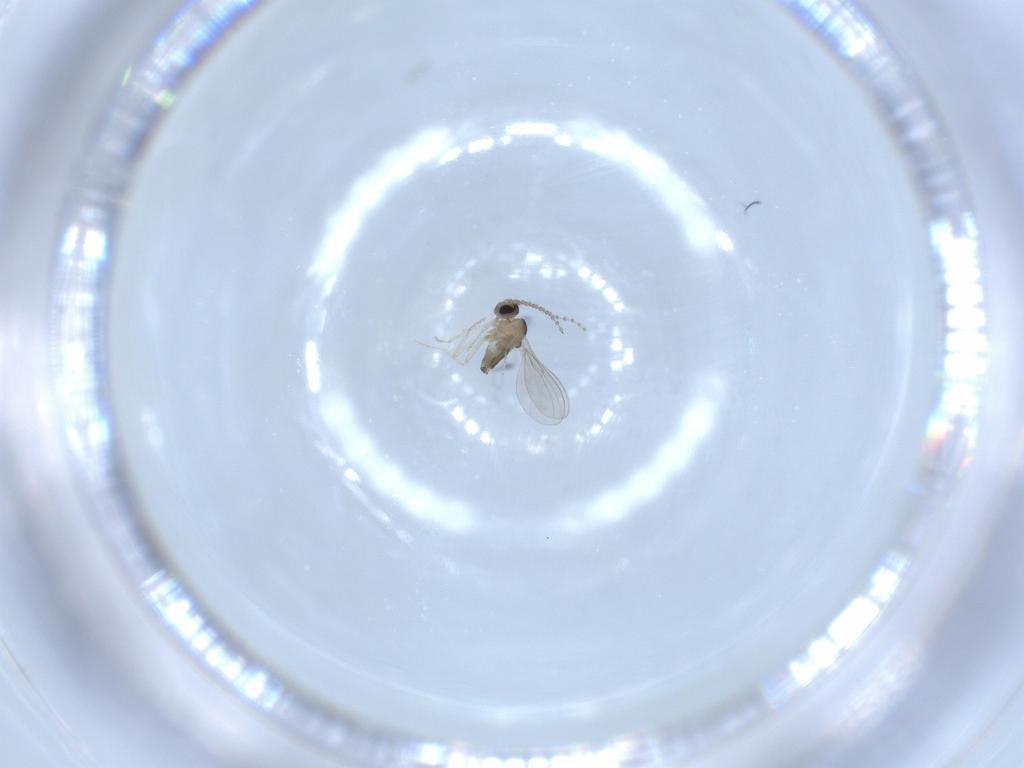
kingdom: Animalia
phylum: Arthropoda
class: Insecta
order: Diptera
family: Cecidomyiidae
